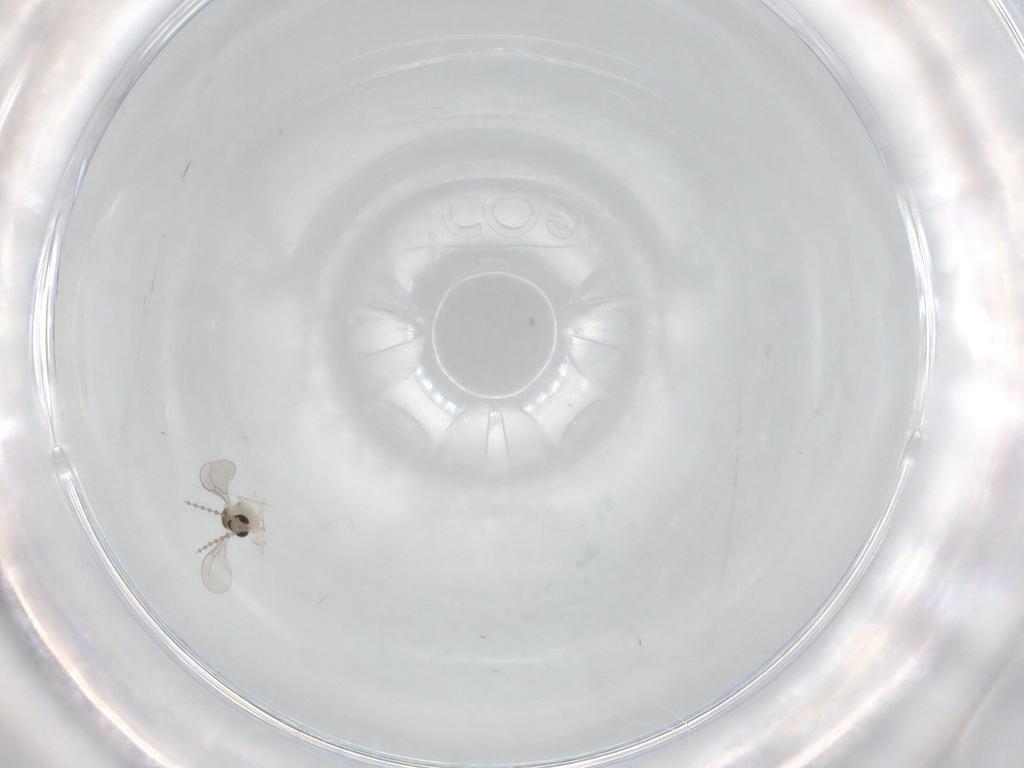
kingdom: Animalia
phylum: Arthropoda
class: Insecta
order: Diptera
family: Cecidomyiidae
